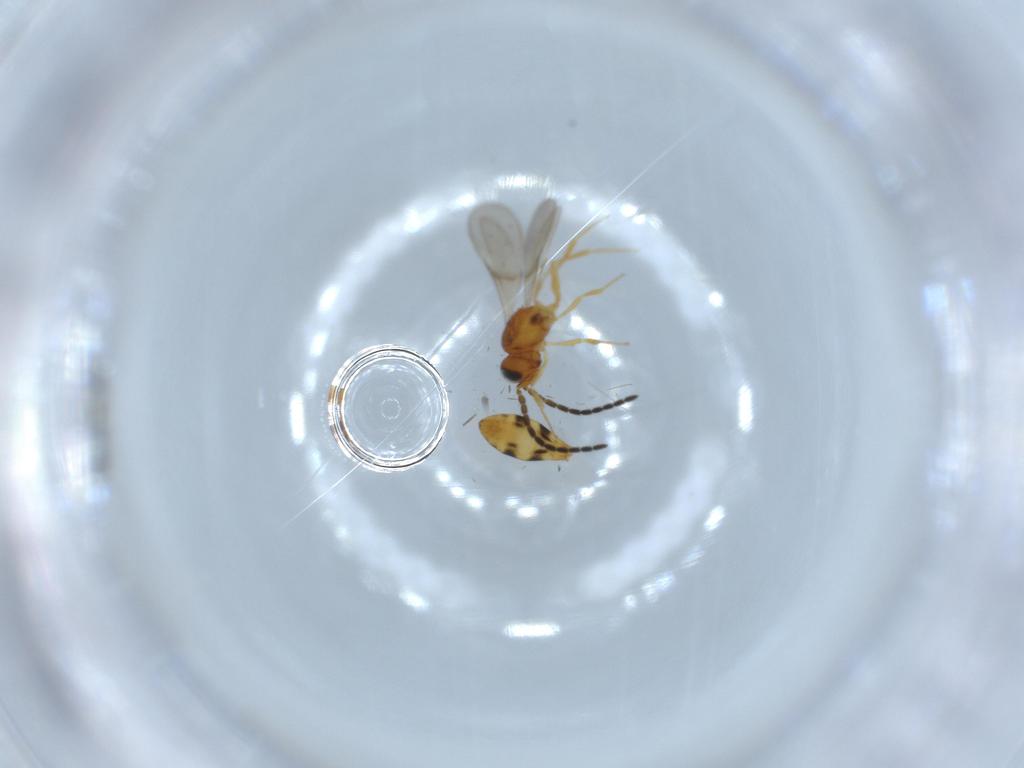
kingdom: Animalia
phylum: Arthropoda
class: Insecta
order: Hymenoptera
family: Scelionidae
